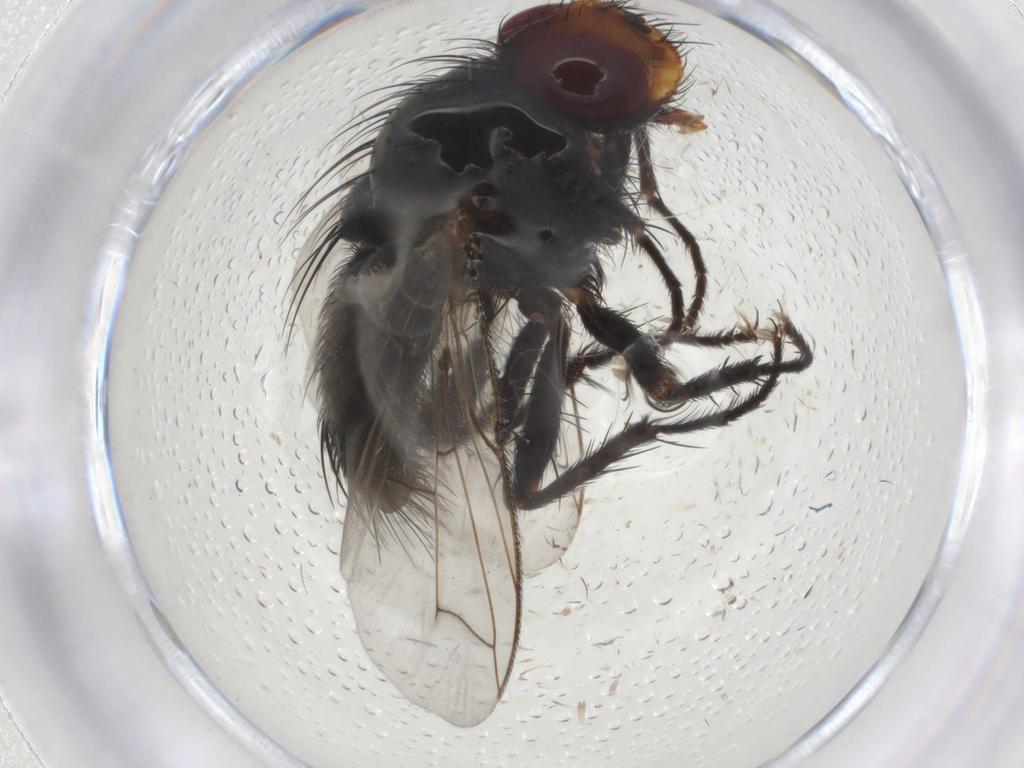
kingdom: Animalia
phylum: Arthropoda
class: Insecta
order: Diptera
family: Tachinidae
